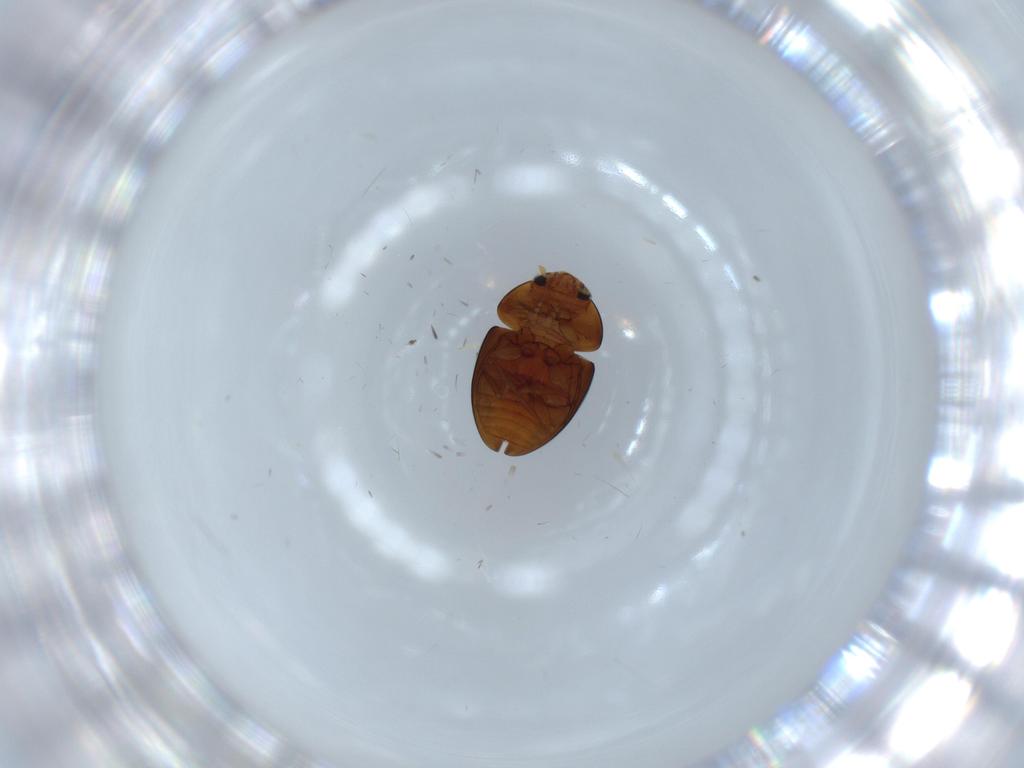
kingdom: Animalia
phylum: Arthropoda
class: Insecta
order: Coleoptera
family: Phalacridae
